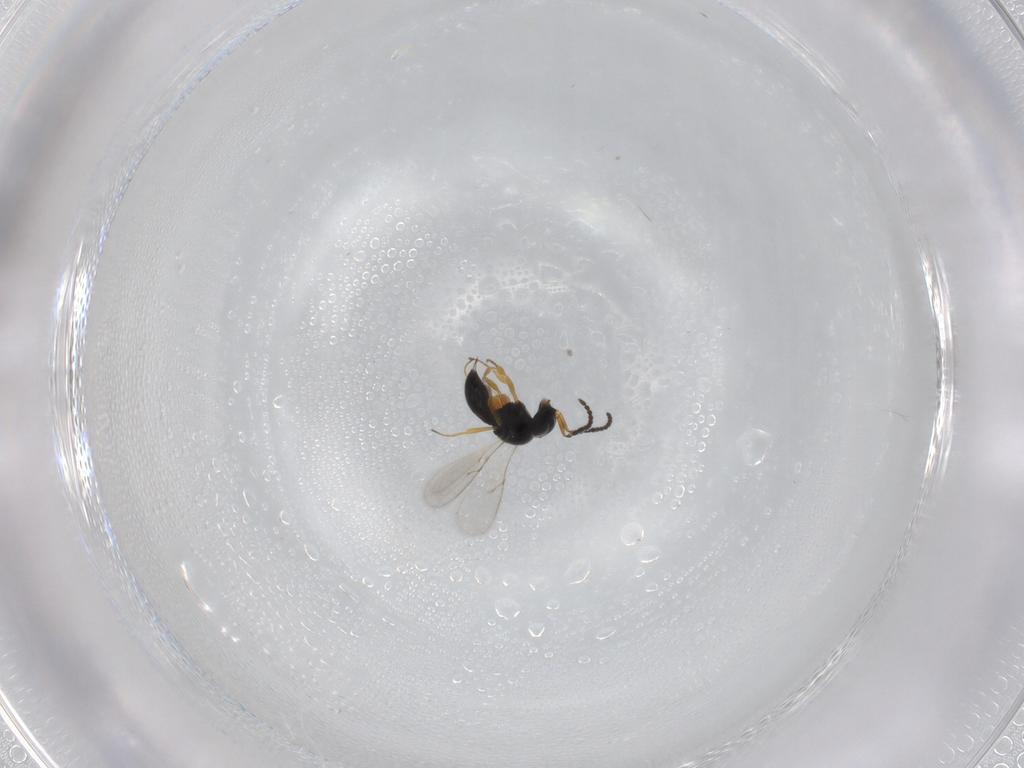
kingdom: Animalia
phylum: Arthropoda
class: Insecta
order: Hymenoptera
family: Scelionidae
